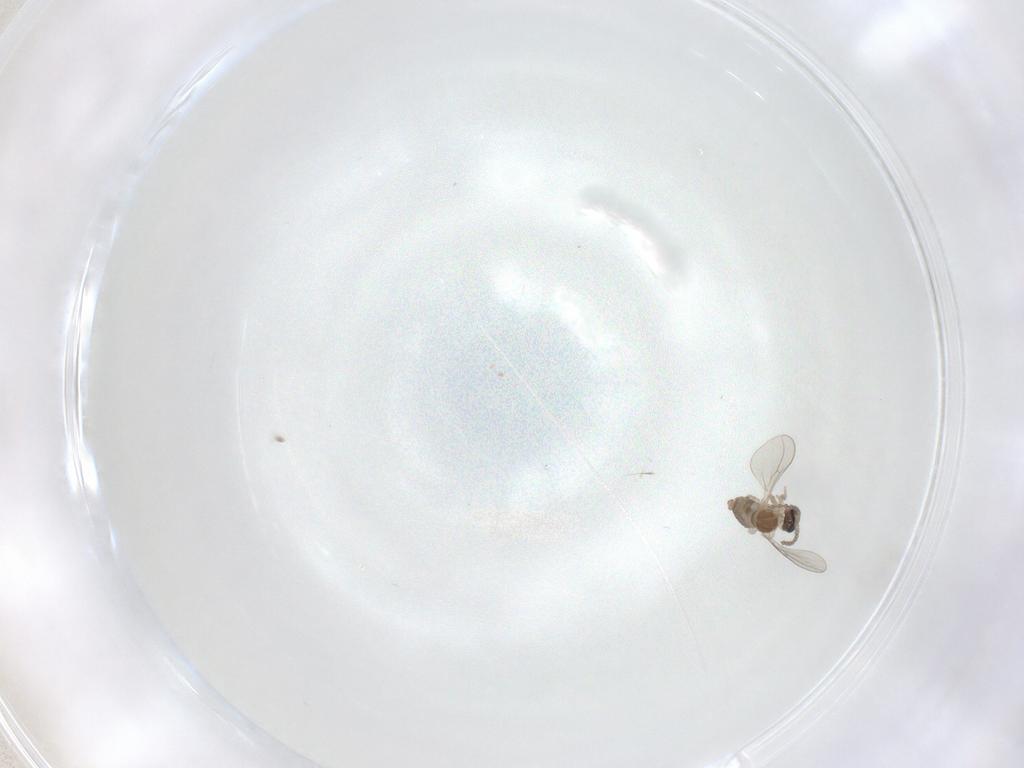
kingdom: Animalia
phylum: Arthropoda
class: Insecta
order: Diptera
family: Cecidomyiidae
